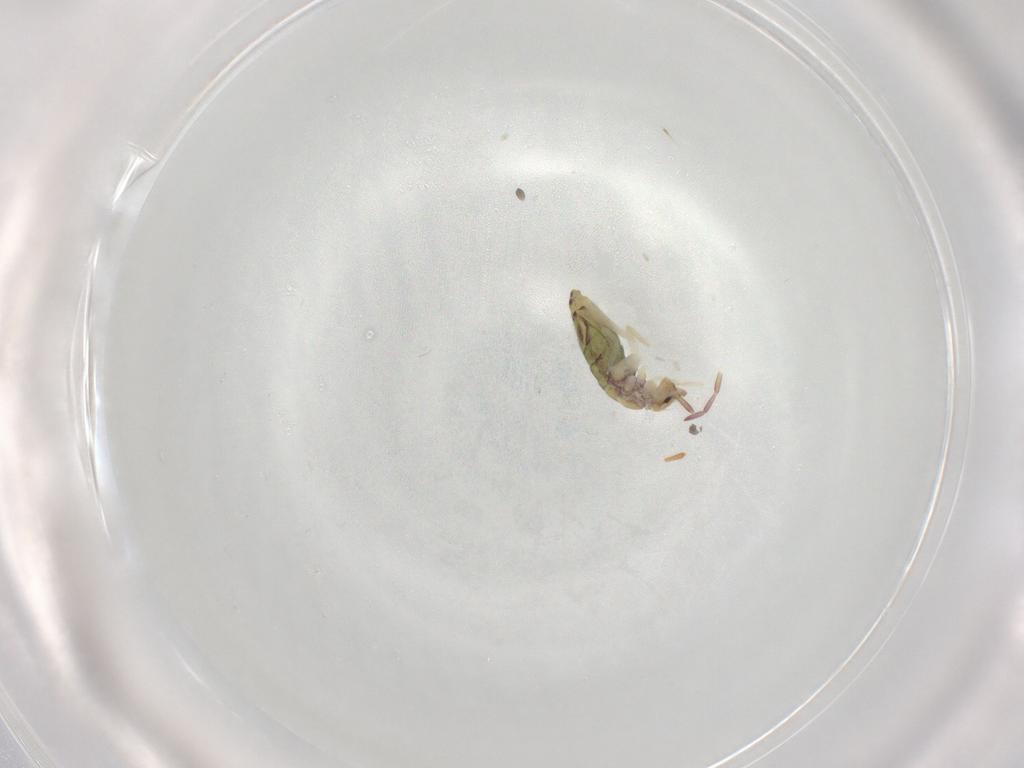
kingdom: Animalia
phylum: Arthropoda
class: Collembola
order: Entomobryomorpha
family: Entomobryidae
